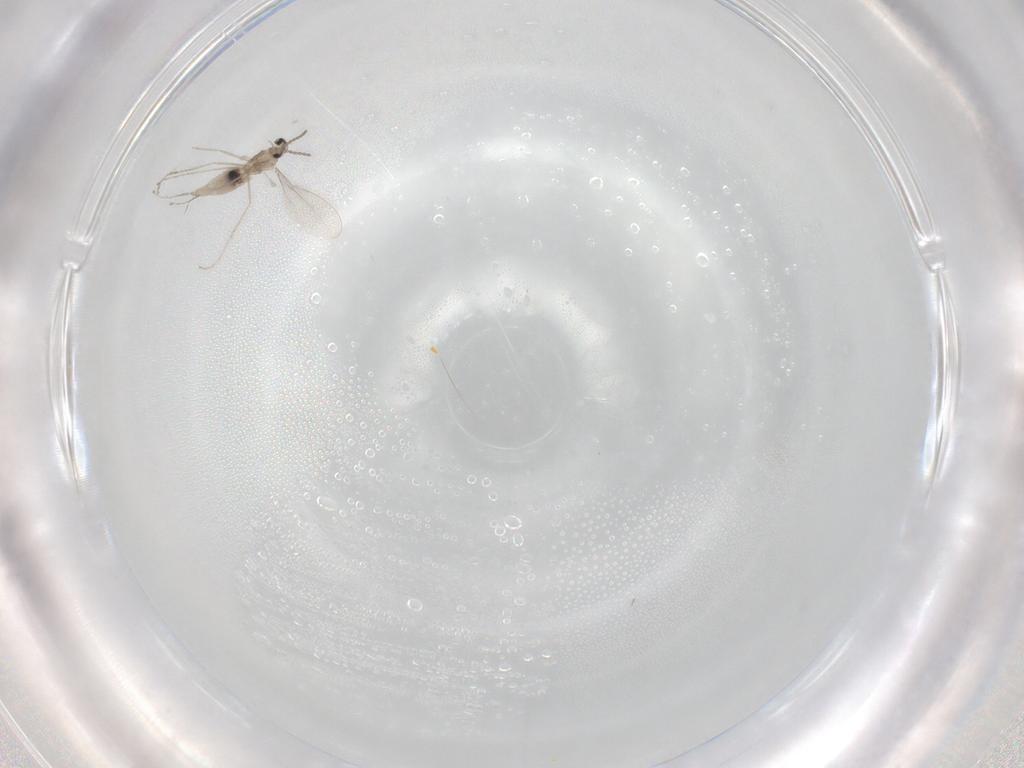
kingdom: Animalia
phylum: Arthropoda
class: Insecta
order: Diptera
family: Cecidomyiidae
